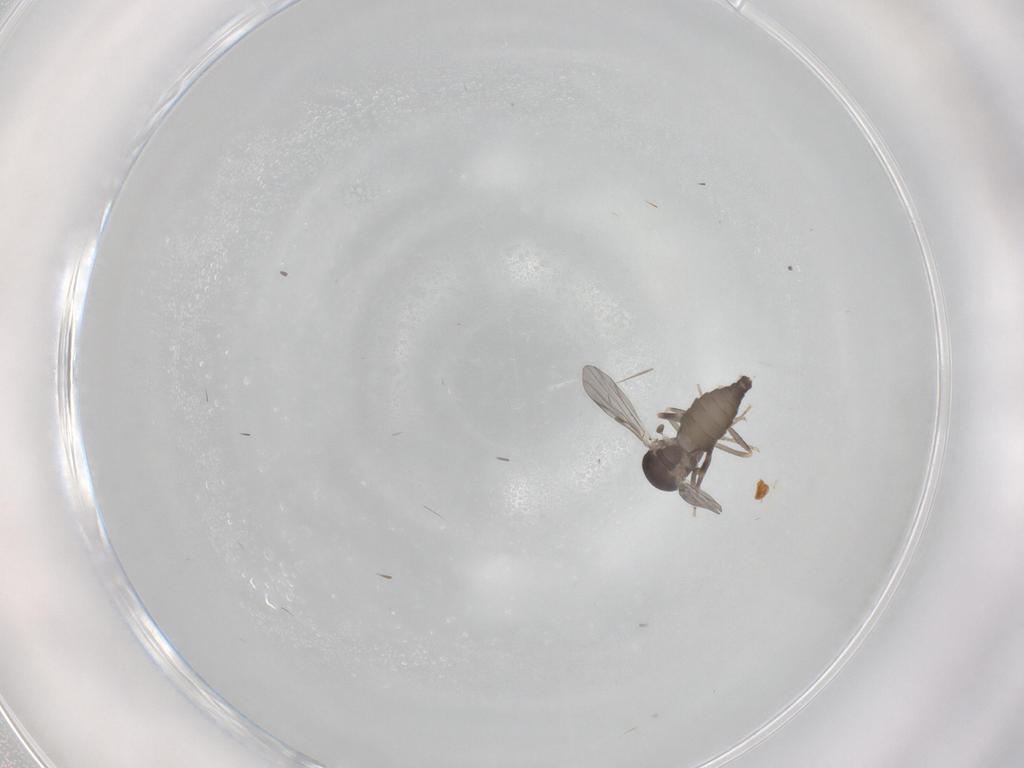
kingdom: Animalia
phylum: Arthropoda
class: Insecta
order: Diptera
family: Ceratopogonidae
